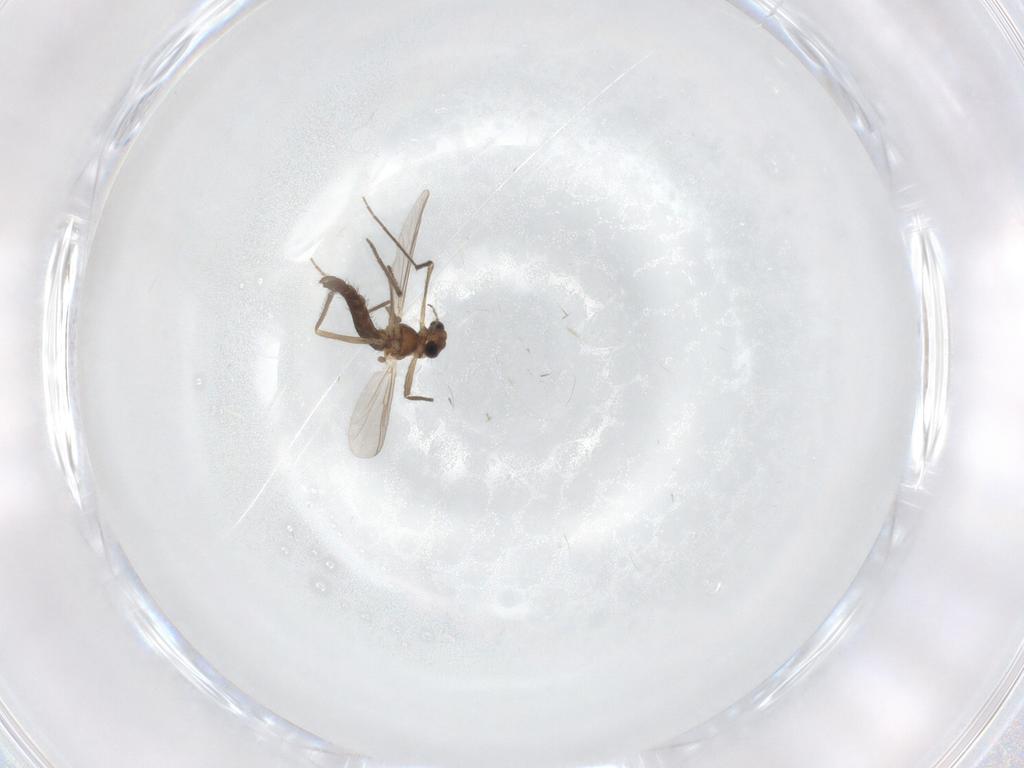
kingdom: Animalia
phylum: Arthropoda
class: Insecta
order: Diptera
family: Chironomidae
